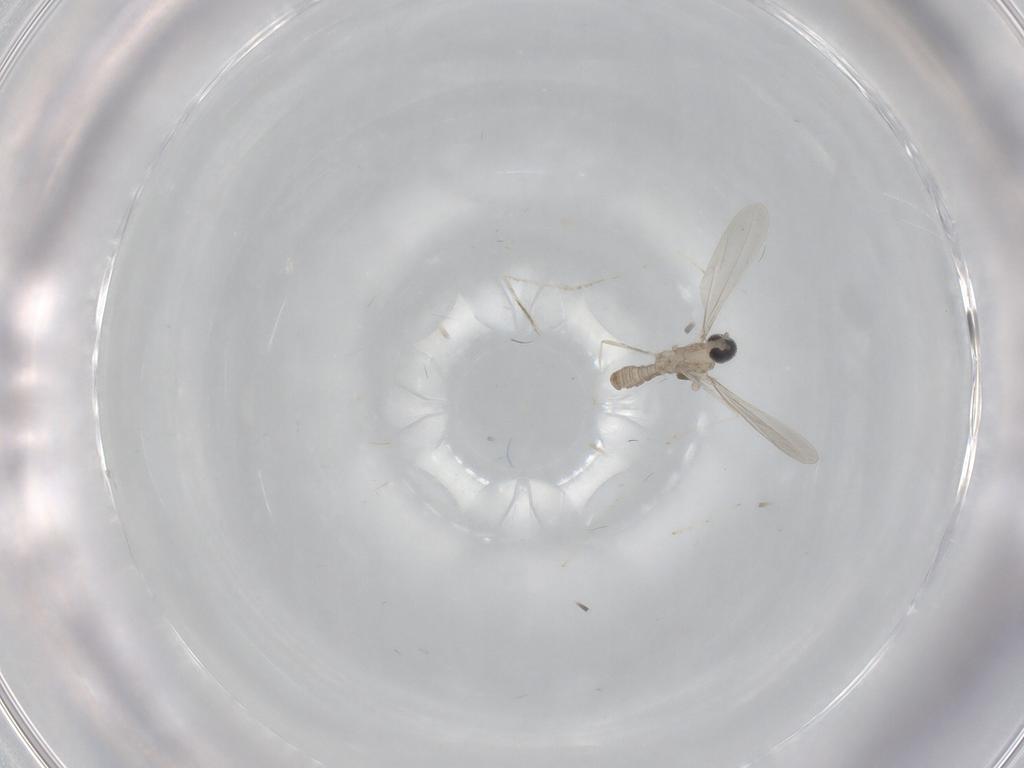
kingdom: Animalia
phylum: Arthropoda
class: Insecta
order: Diptera
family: Cecidomyiidae
